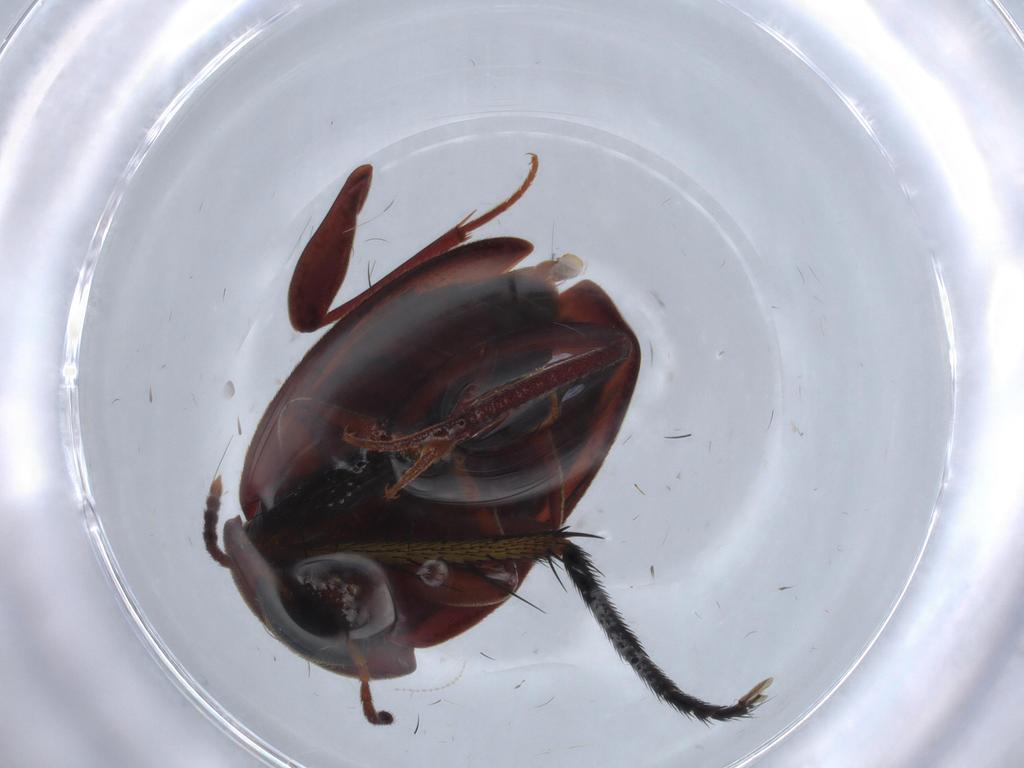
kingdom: Animalia
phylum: Arthropoda
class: Insecta
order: Coleoptera
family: Leiodidae
